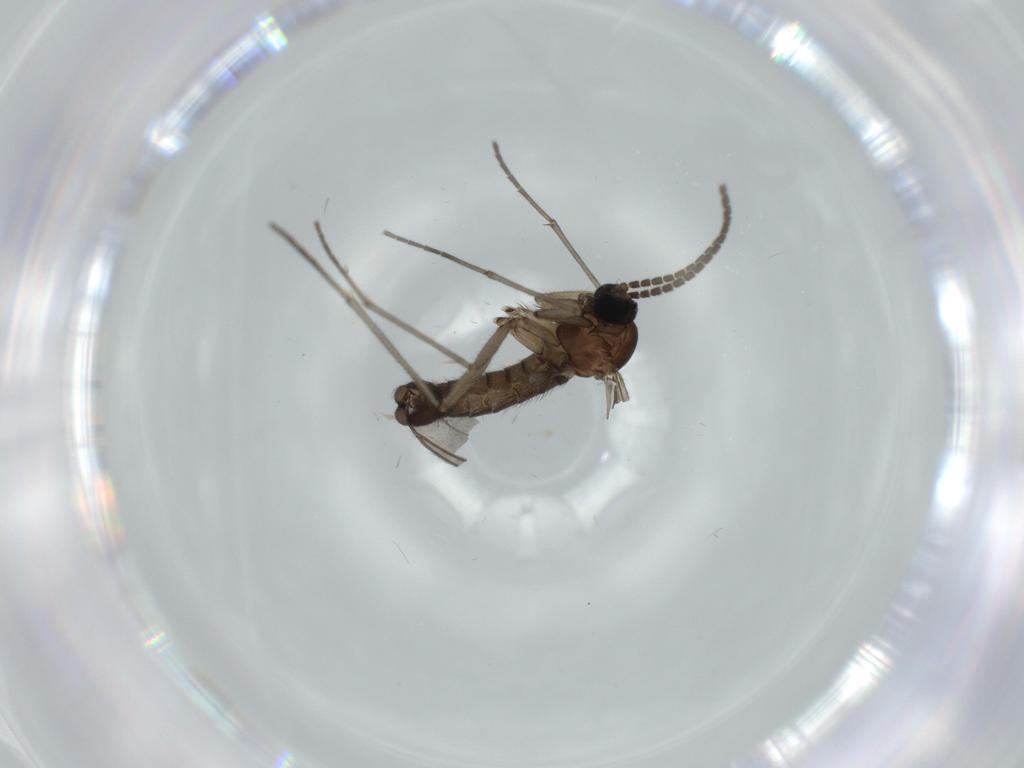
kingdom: Animalia
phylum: Arthropoda
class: Insecta
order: Diptera
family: Sciaridae
